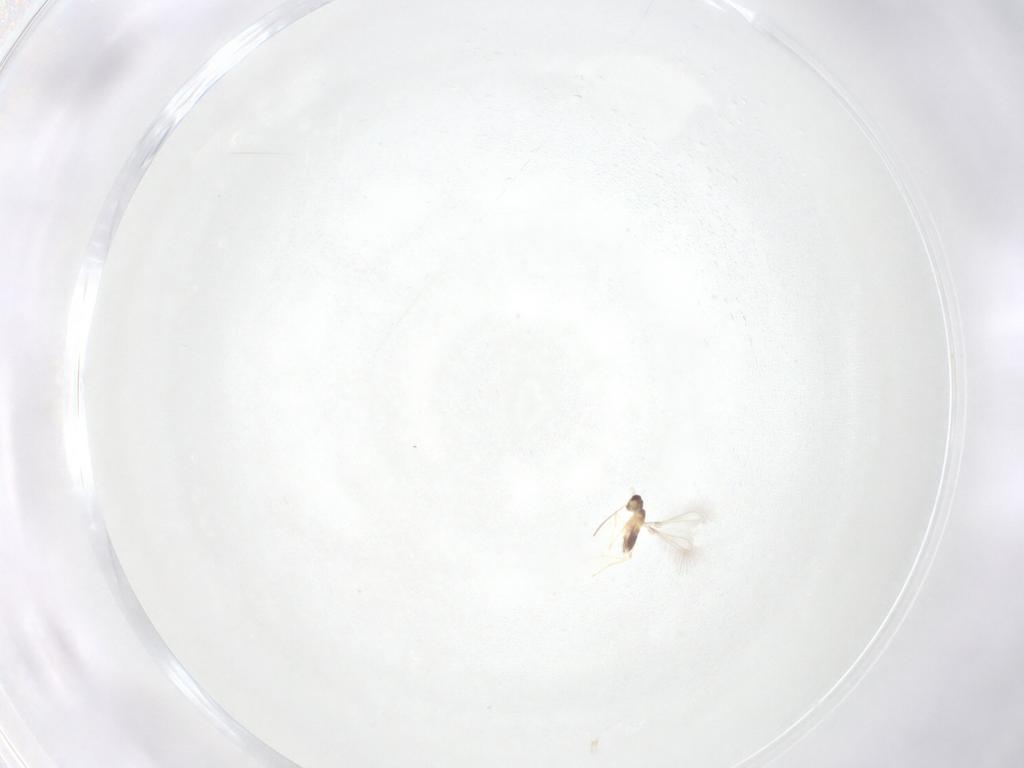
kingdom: Animalia
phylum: Arthropoda
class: Insecta
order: Hymenoptera
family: Mymaridae
